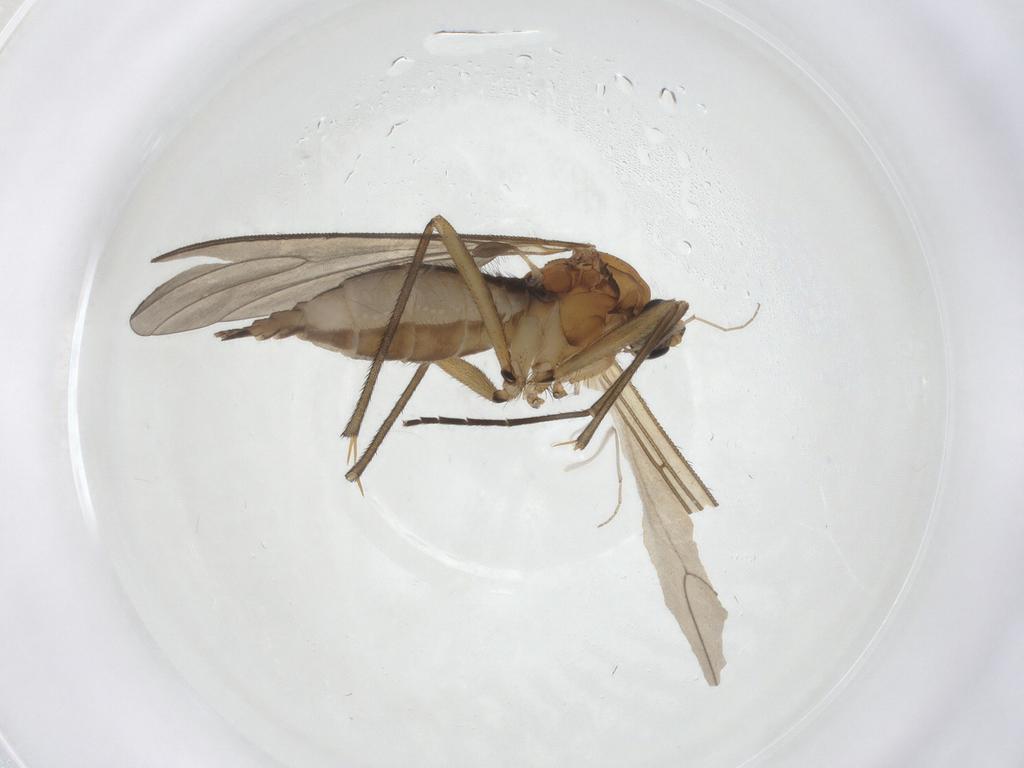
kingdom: Animalia
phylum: Arthropoda
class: Insecta
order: Diptera
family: Sciaridae
